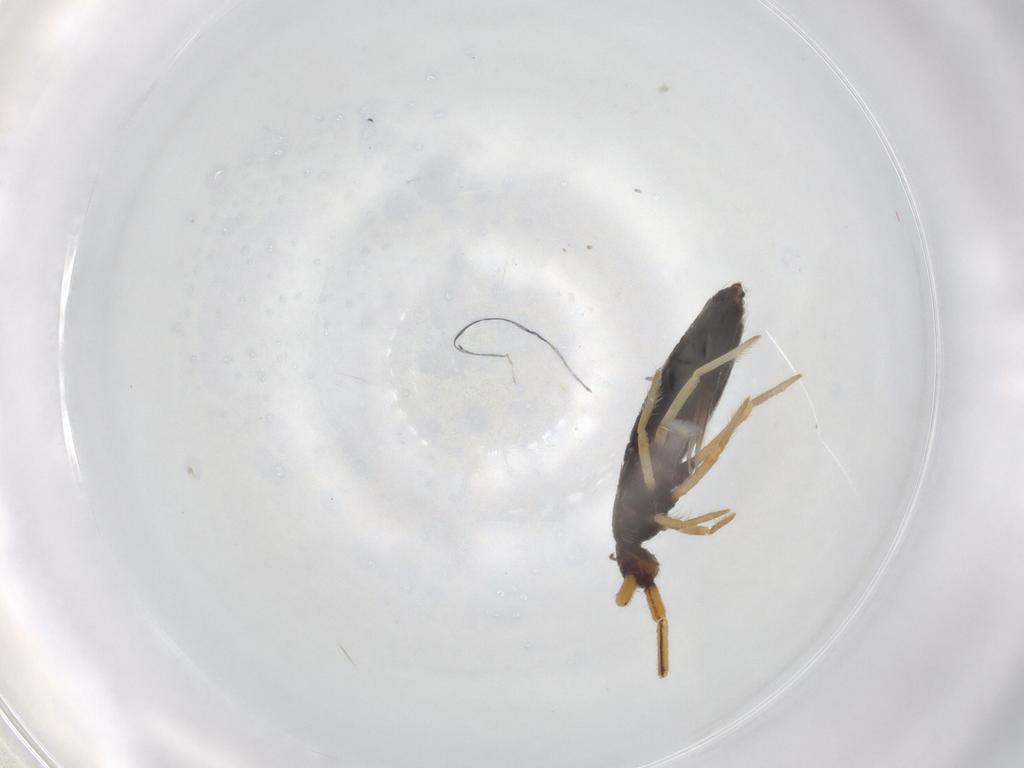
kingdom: Animalia
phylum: Arthropoda
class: Collembola
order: Entomobryomorpha
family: Entomobryidae
